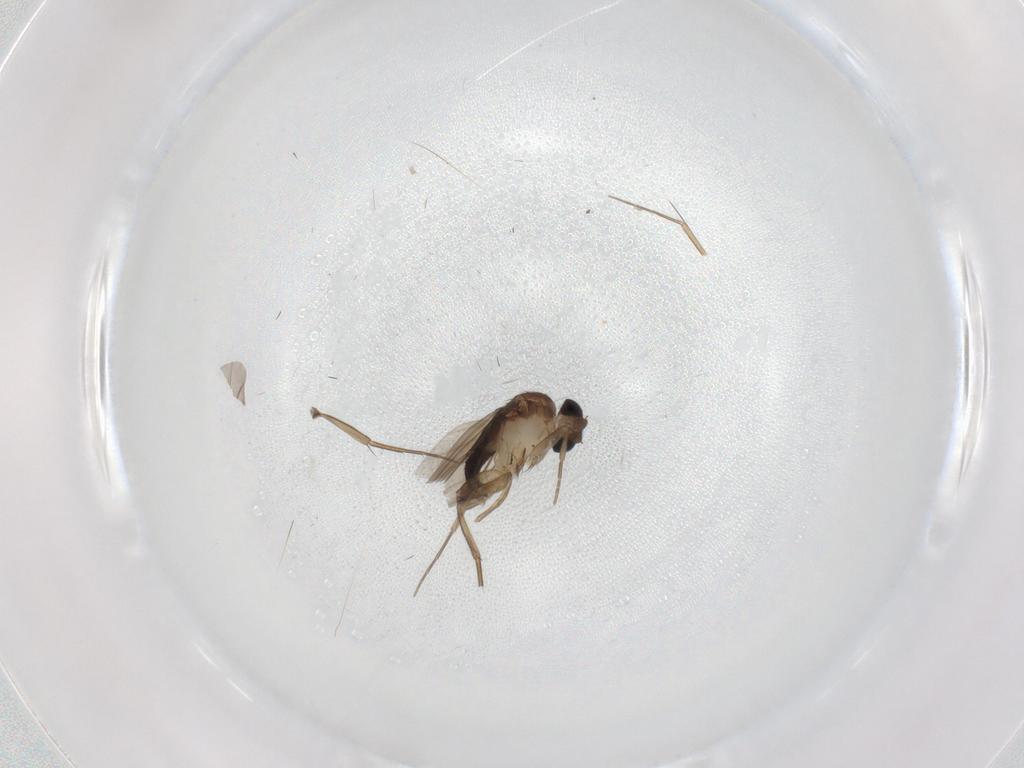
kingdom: Animalia
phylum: Arthropoda
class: Insecta
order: Diptera
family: Phoridae
